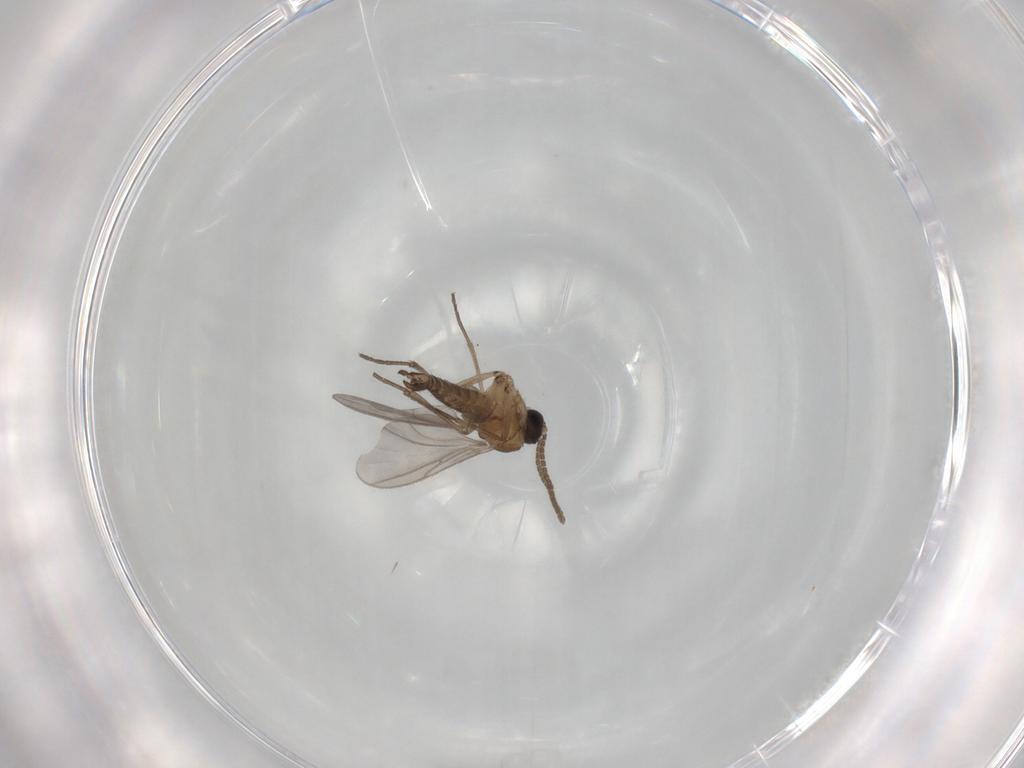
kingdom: Animalia
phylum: Arthropoda
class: Insecta
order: Diptera
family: Sciaridae
